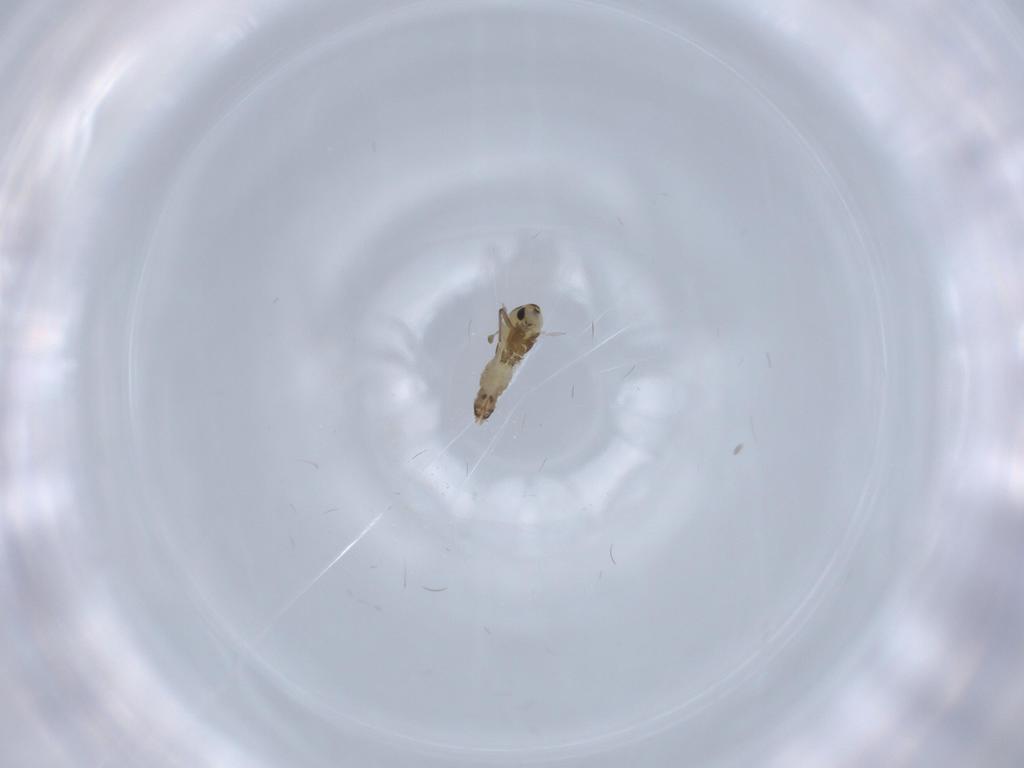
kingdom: Animalia
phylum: Arthropoda
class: Insecta
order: Diptera
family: Chironomidae
